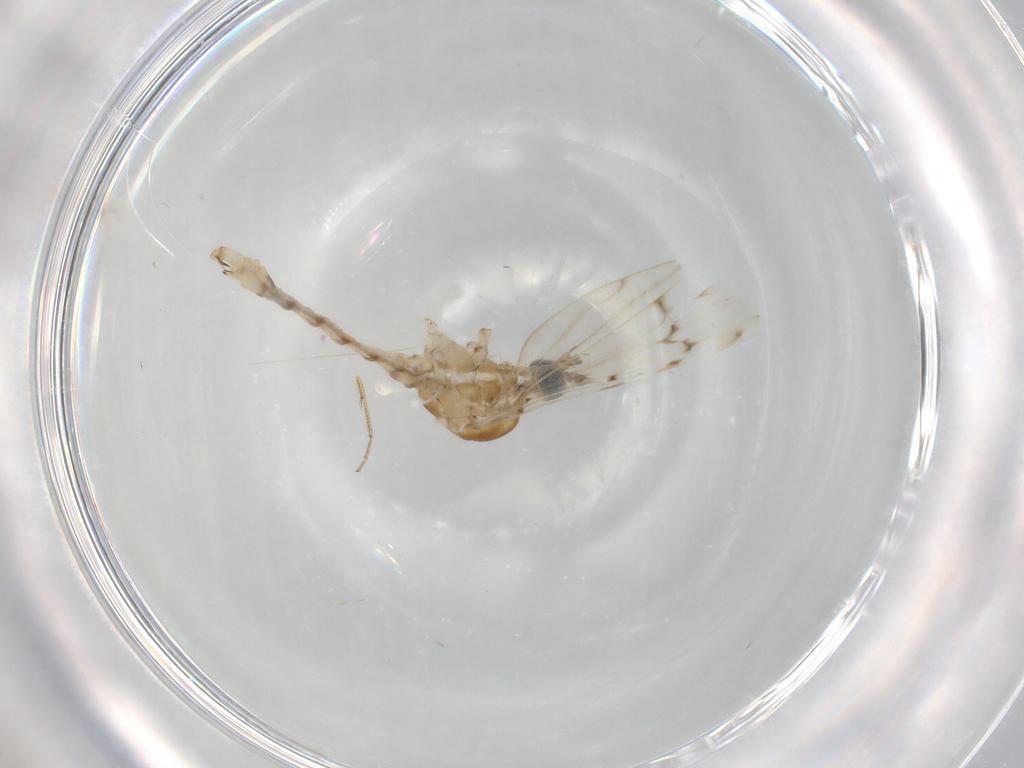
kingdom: Animalia
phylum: Arthropoda
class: Insecta
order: Diptera
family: Limoniidae
